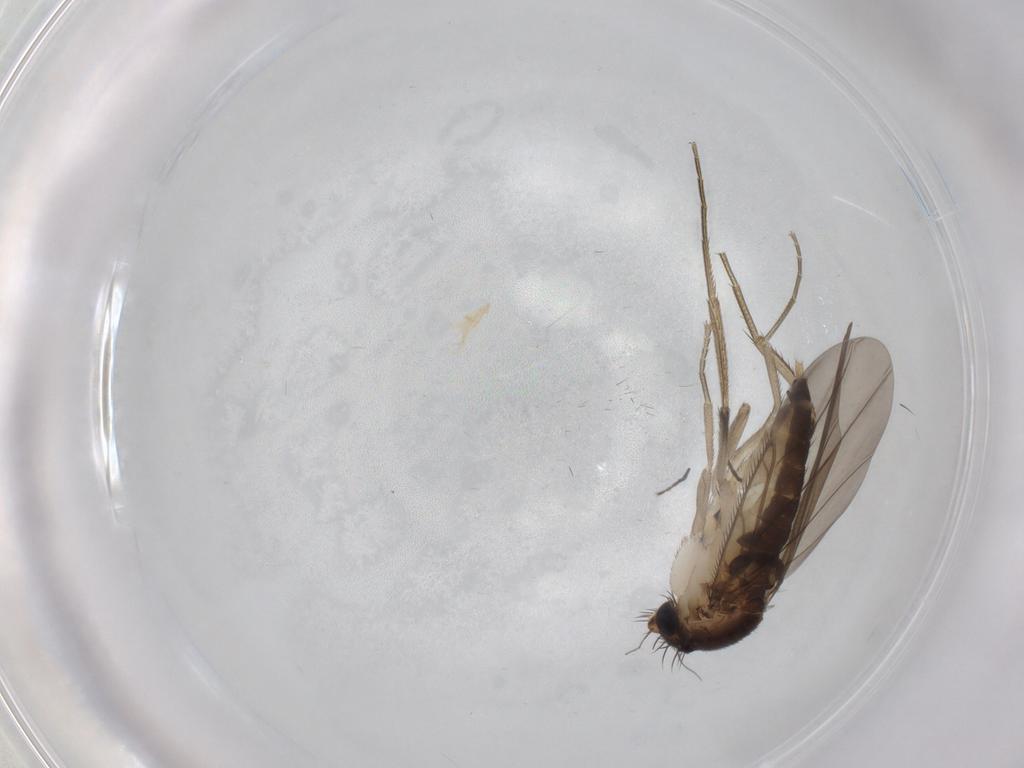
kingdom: Animalia
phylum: Arthropoda
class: Insecta
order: Diptera
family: Phoridae
